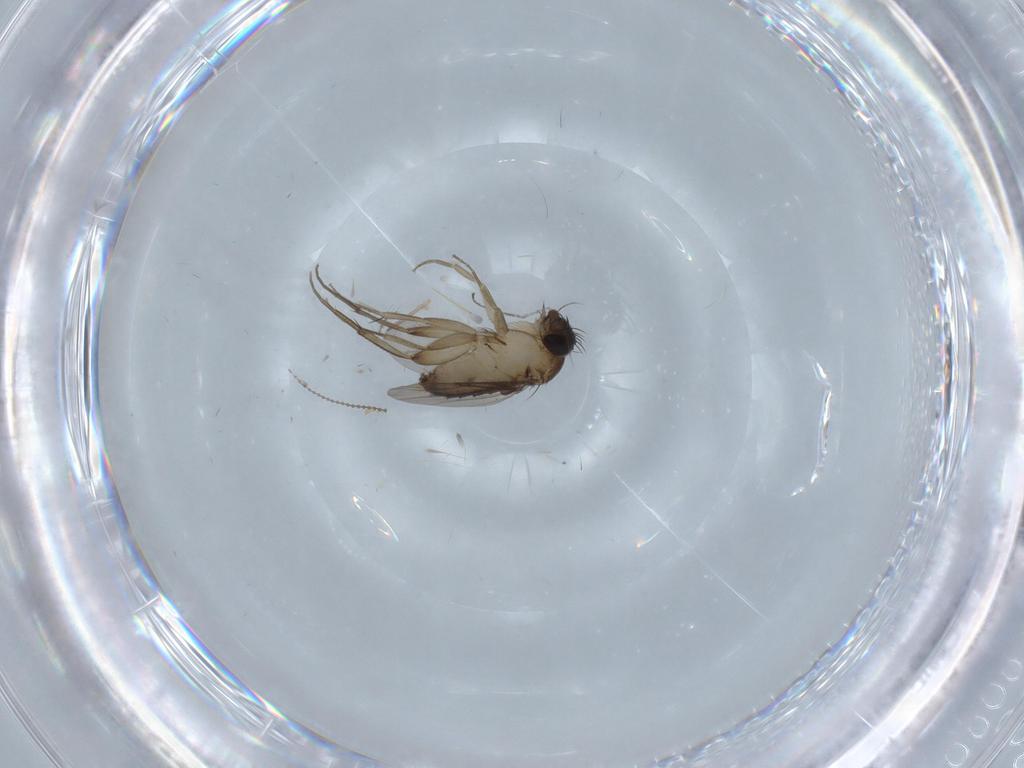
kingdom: Animalia
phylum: Arthropoda
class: Insecta
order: Diptera
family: Phoridae
